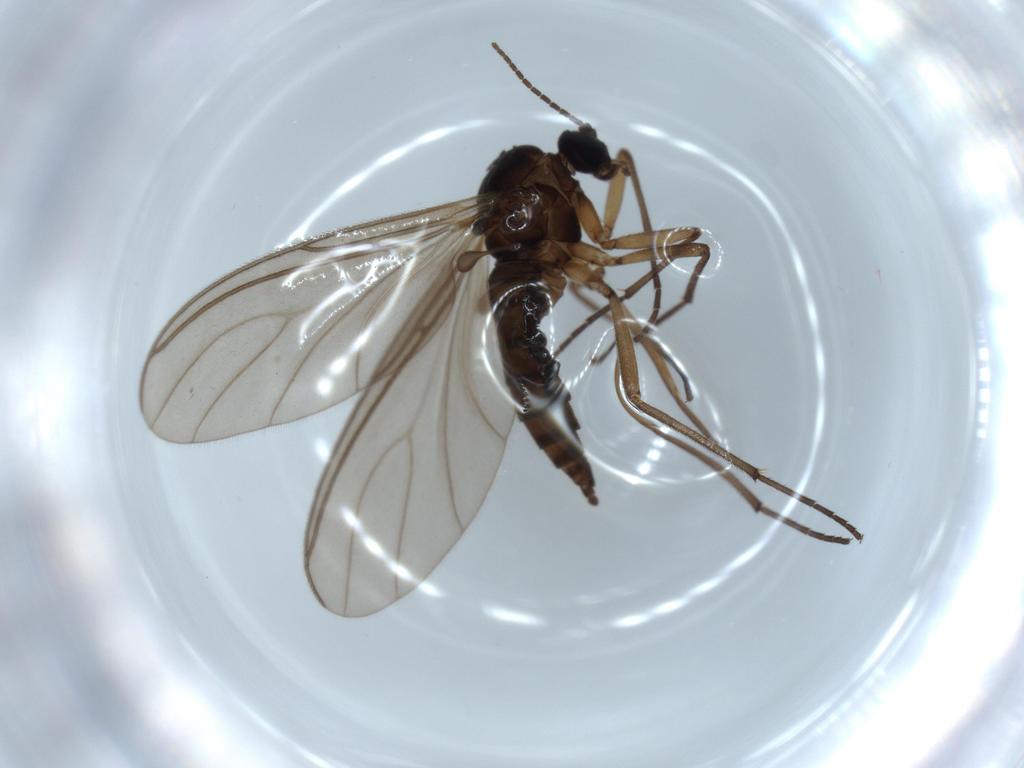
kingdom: Animalia
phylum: Arthropoda
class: Insecta
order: Diptera
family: Sciaridae
